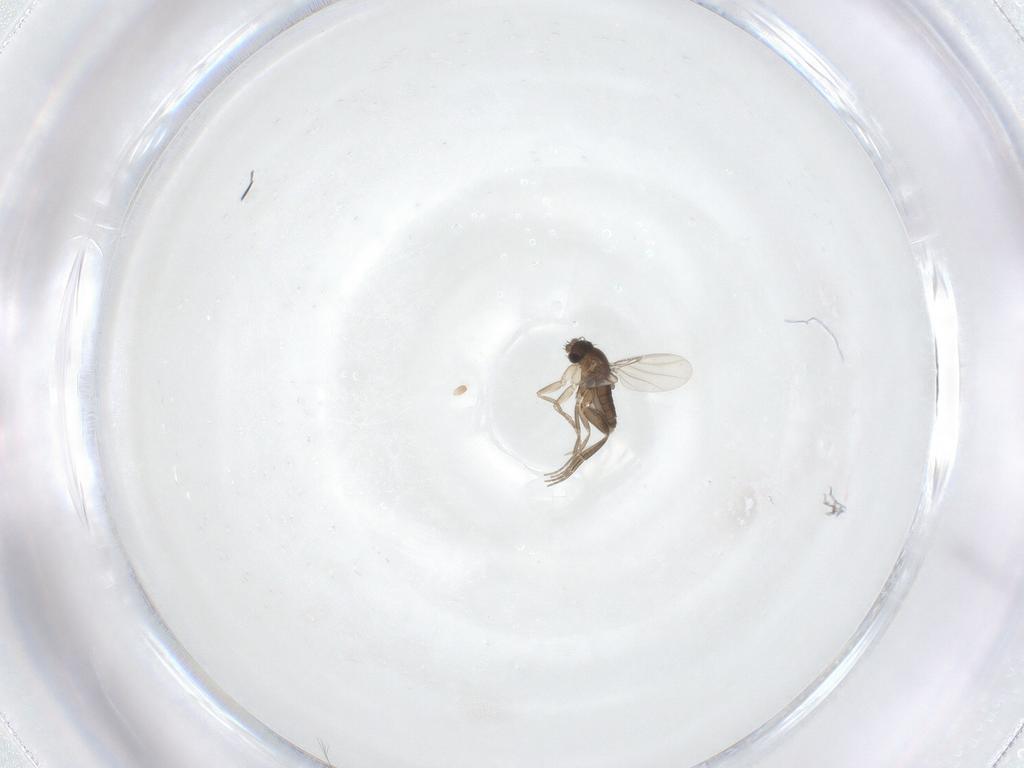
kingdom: Animalia
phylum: Arthropoda
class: Insecta
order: Diptera
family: Phoridae
